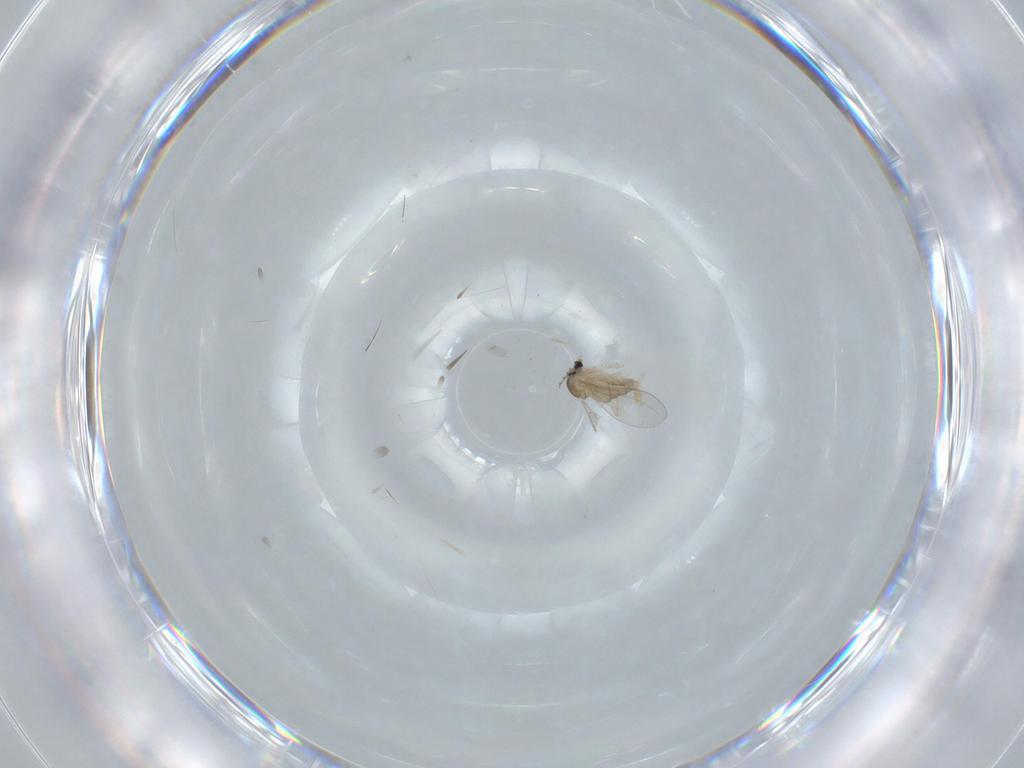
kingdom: Animalia
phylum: Arthropoda
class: Insecta
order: Diptera
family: Cecidomyiidae
